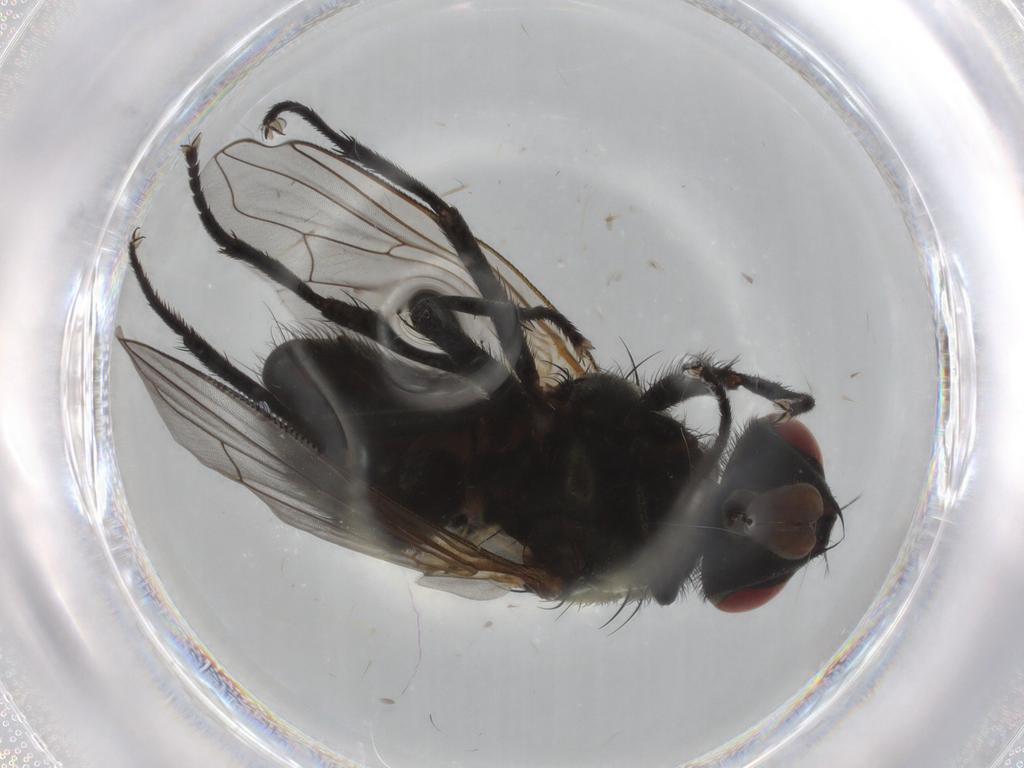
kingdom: Animalia
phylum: Arthropoda
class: Insecta
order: Diptera
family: Muscidae
